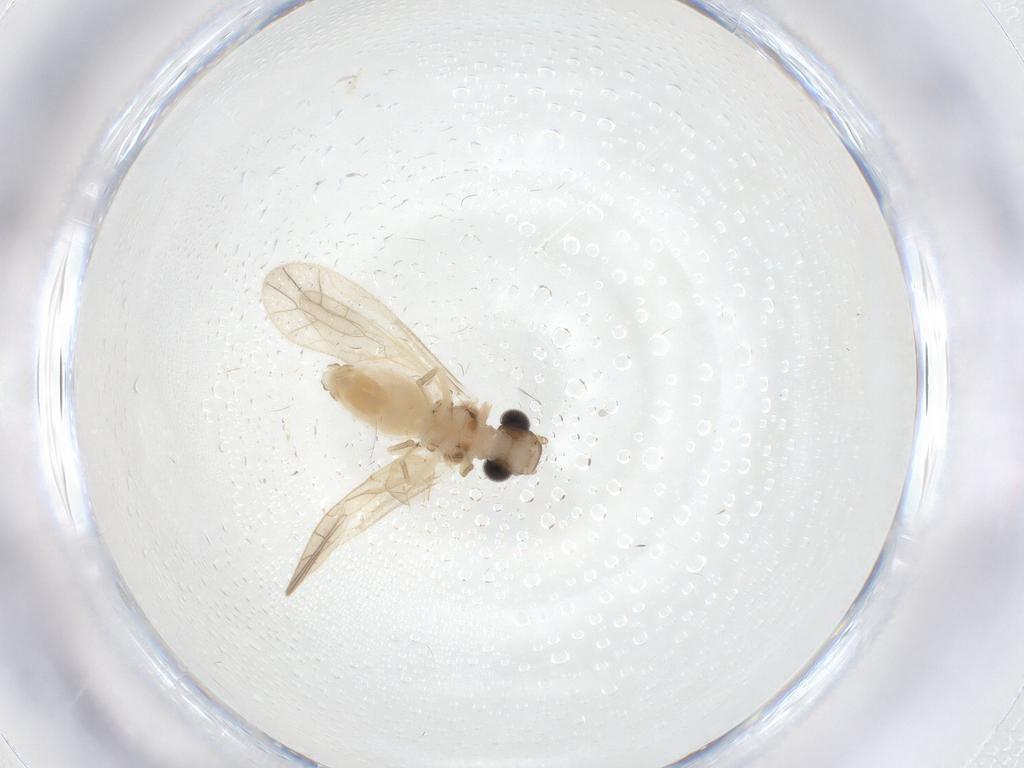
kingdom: Animalia
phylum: Arthropoda
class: Insecta
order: Psocodea
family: Caeciliusidae
